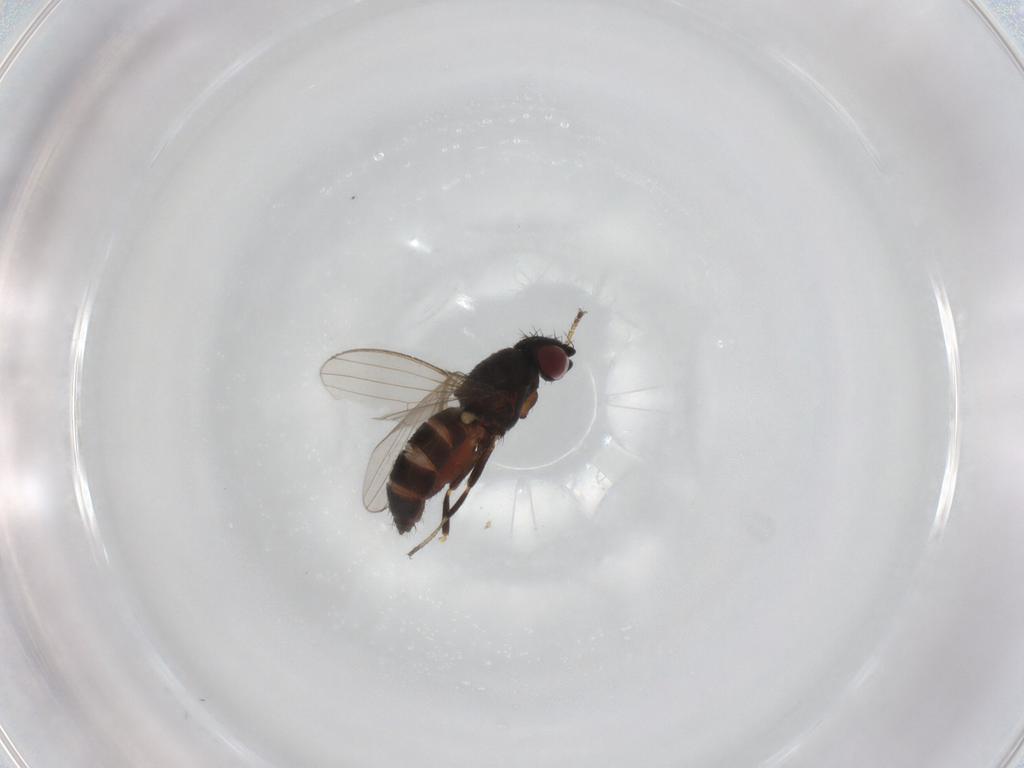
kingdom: Animalia
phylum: Arthropoda
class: Insecta
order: Diptera
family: Milichiidae
